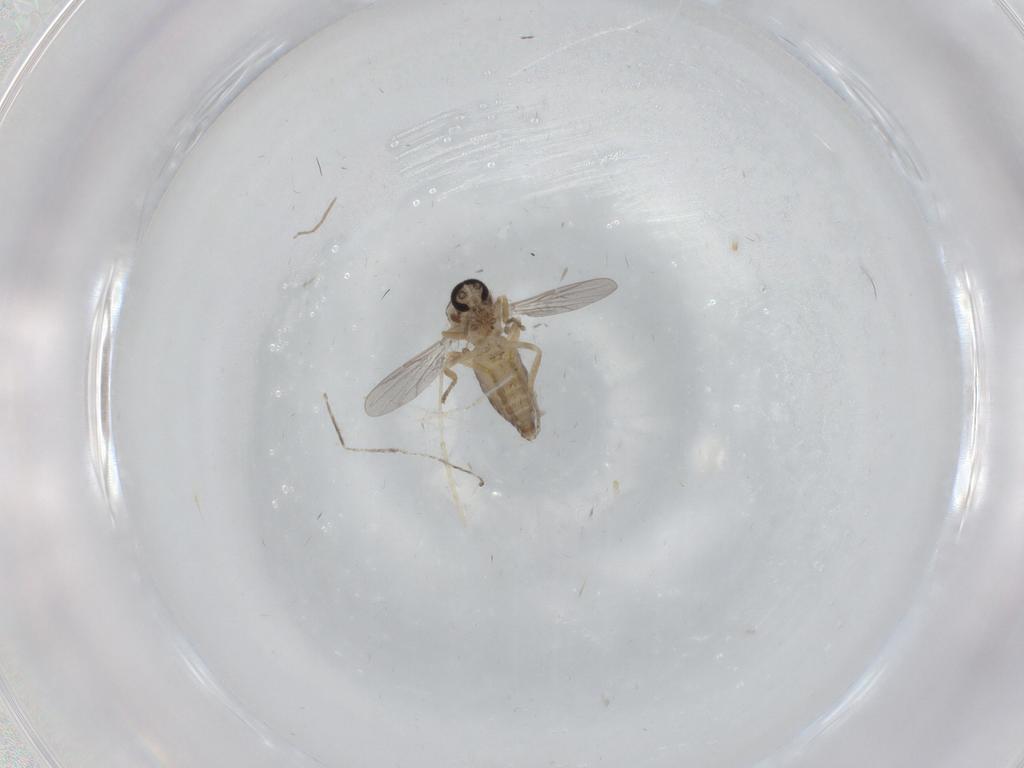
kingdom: Animalia
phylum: Arthropoda
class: Insecta
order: Diptera
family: Ceratopogonidae
